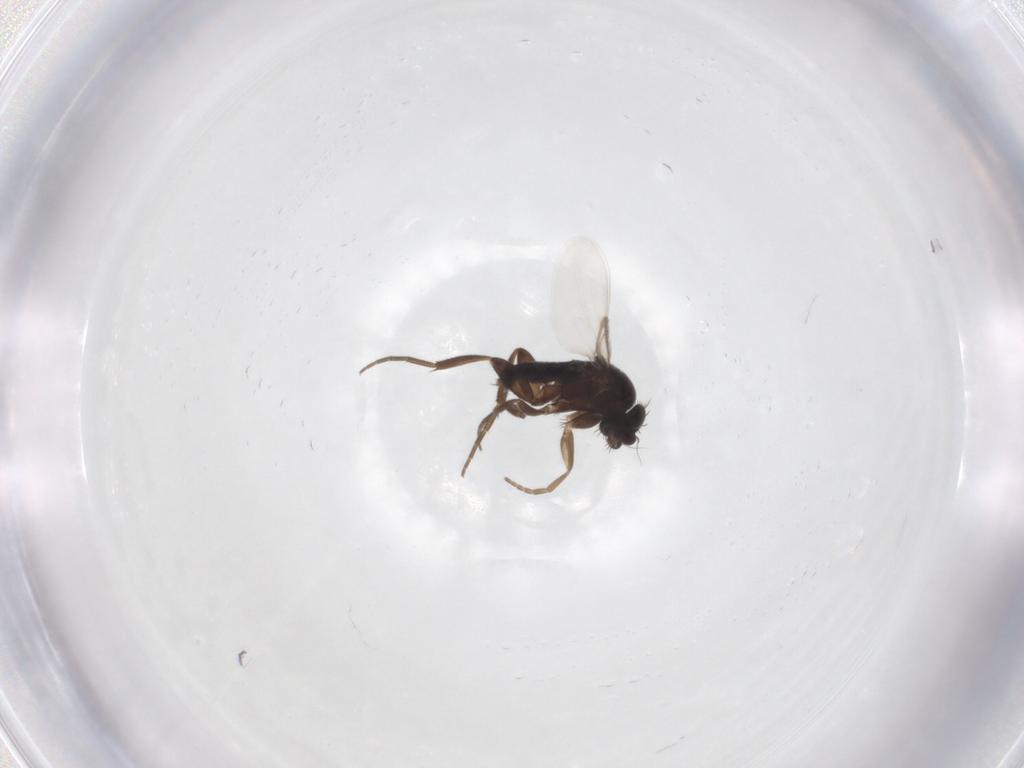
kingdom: Animalia
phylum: Arthropoda
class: Insecta
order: Diptera
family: Phoridae
